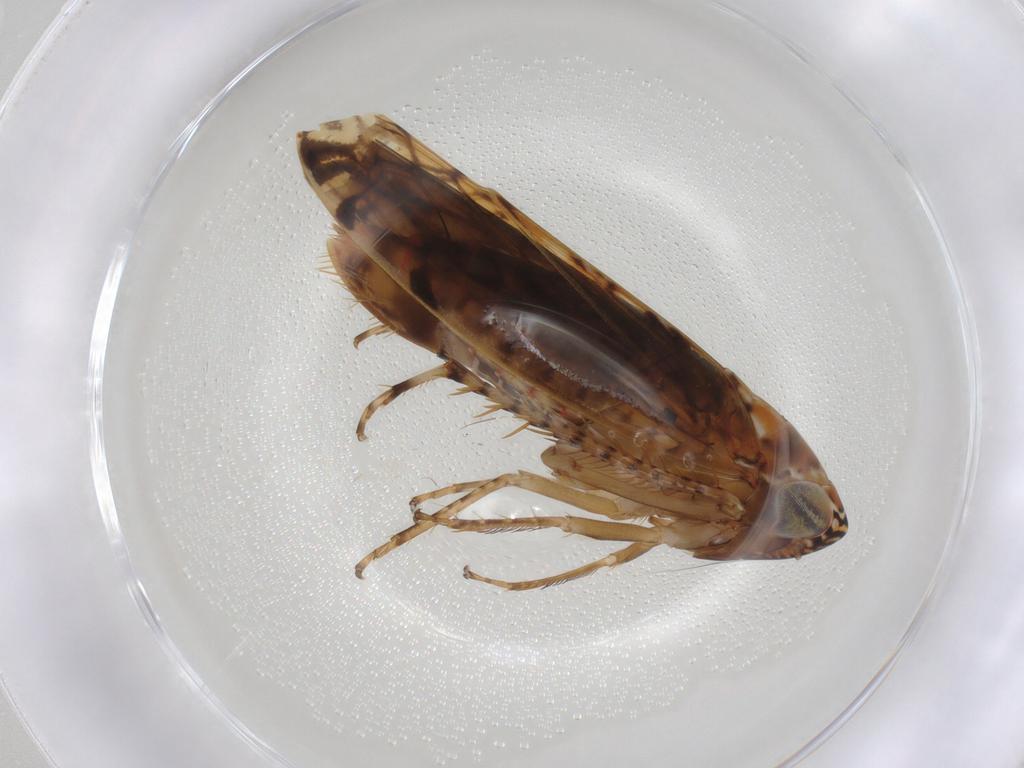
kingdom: Animalia
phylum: Arthropoda
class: Insecta
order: Hemiptera
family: Cicadellidae
